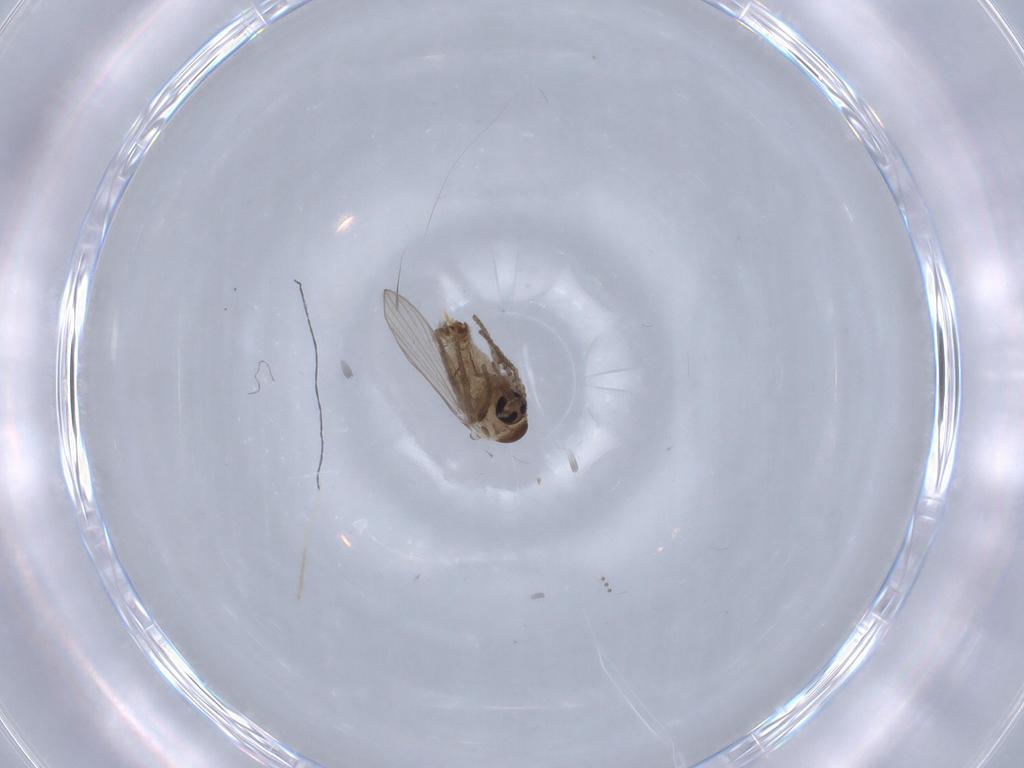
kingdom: Animalia
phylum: Arthropoda
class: Insecta
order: Diptera
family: Psychodidae
